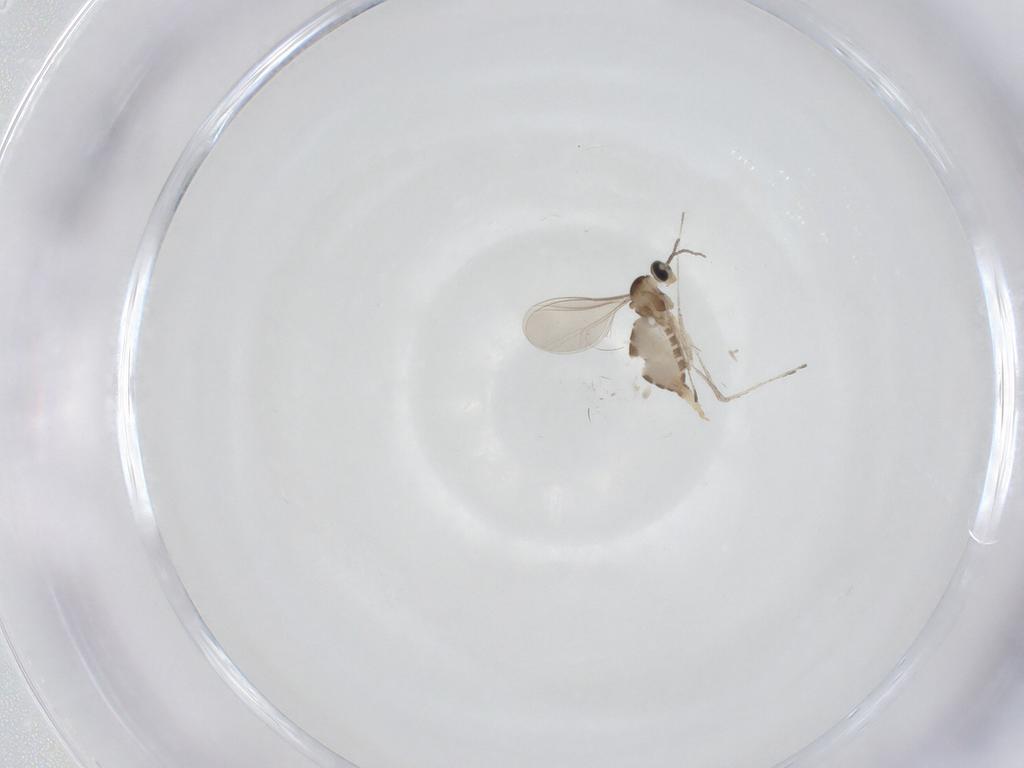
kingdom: Animalia
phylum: Arthropoda
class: Insecta
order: Diptera
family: Cecidomyiidae
